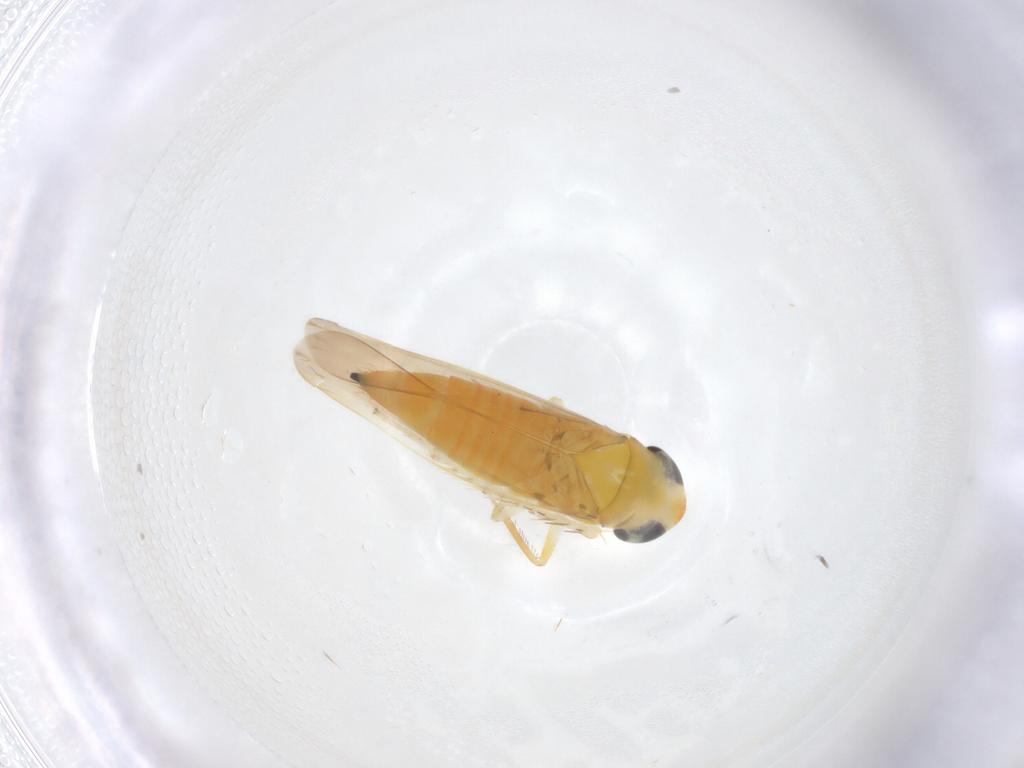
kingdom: Animalia
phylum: Arthropoda
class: Insecta
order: Hemiptera
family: Cicadellidae
